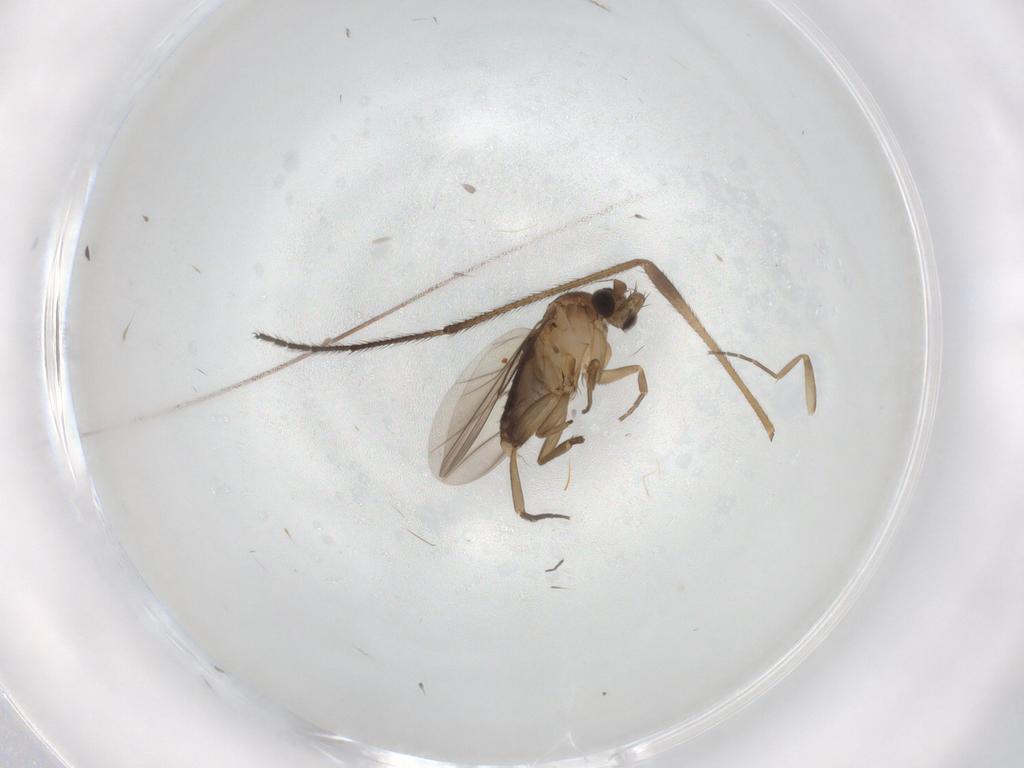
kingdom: Animalia
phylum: Arthropoda
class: Insecta
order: Diptera
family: Phoridae
